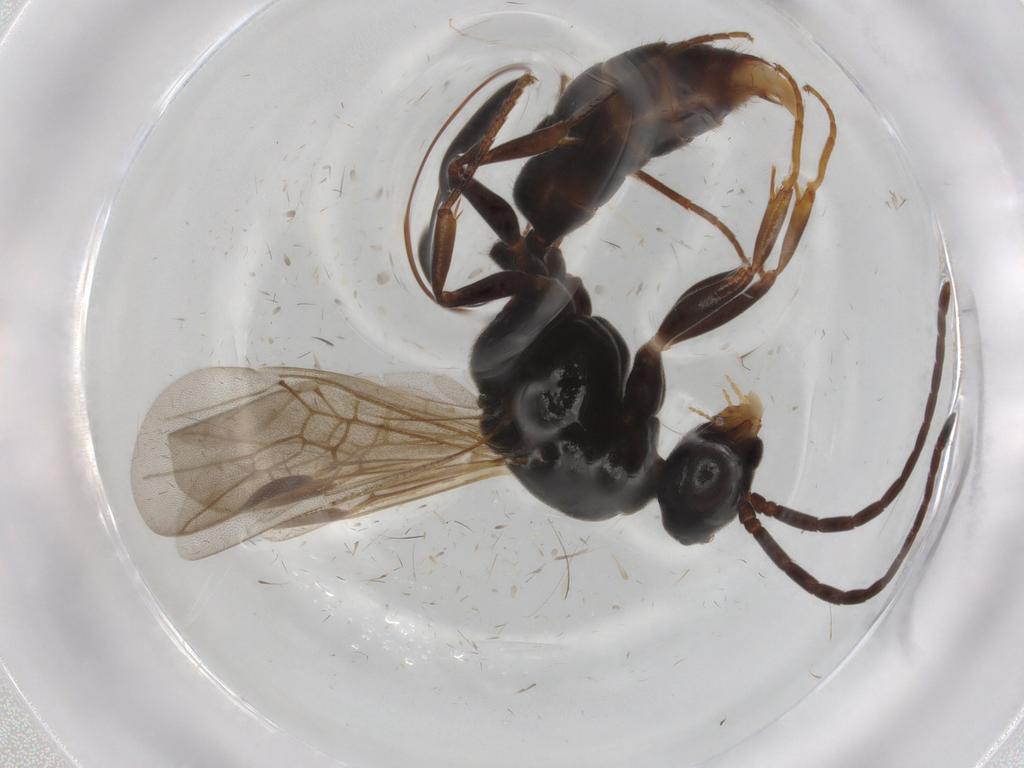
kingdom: Animalia
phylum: Arthropoda
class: Insecta
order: Hymenoptera
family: Formicidae
